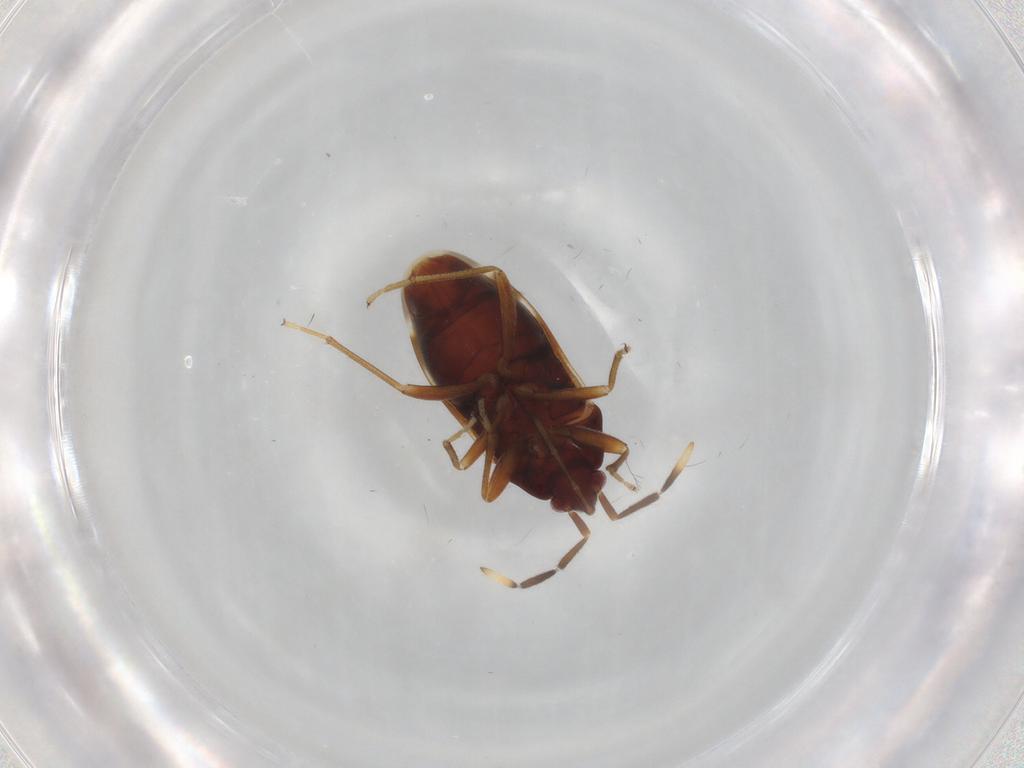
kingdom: Animalia
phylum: Arthropoda
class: Insecta
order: Hemiptera
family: Rhyparochromidae
